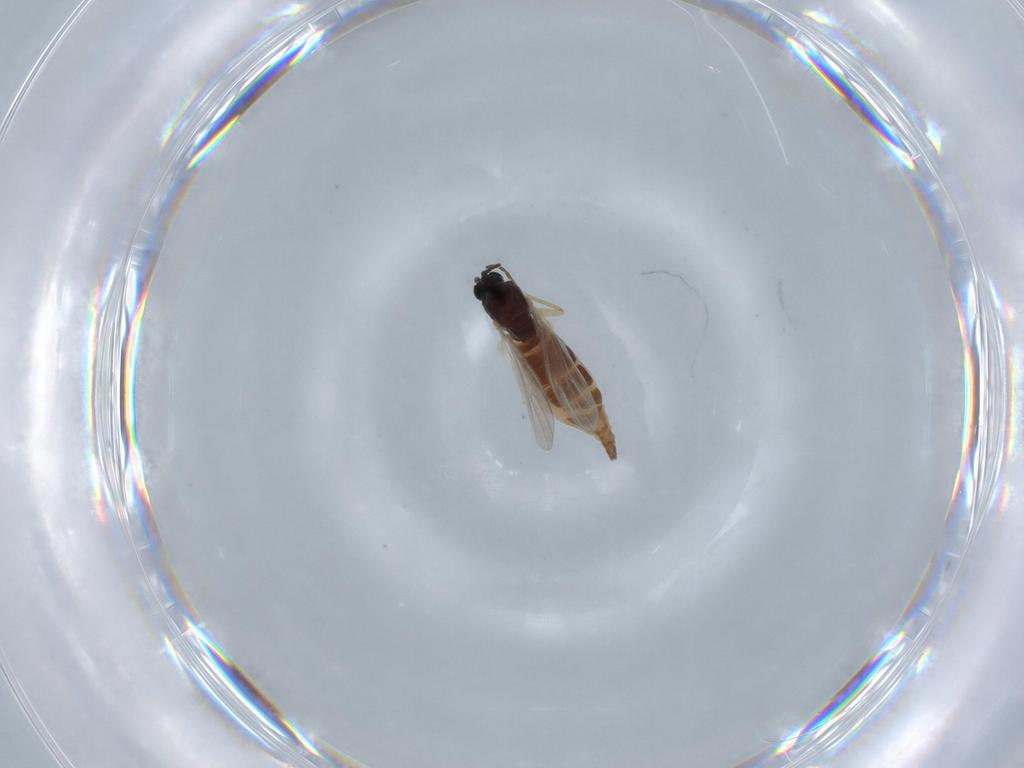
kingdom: Animalia
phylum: Arthropoda
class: Insecta
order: Diptera
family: Sciaridae
